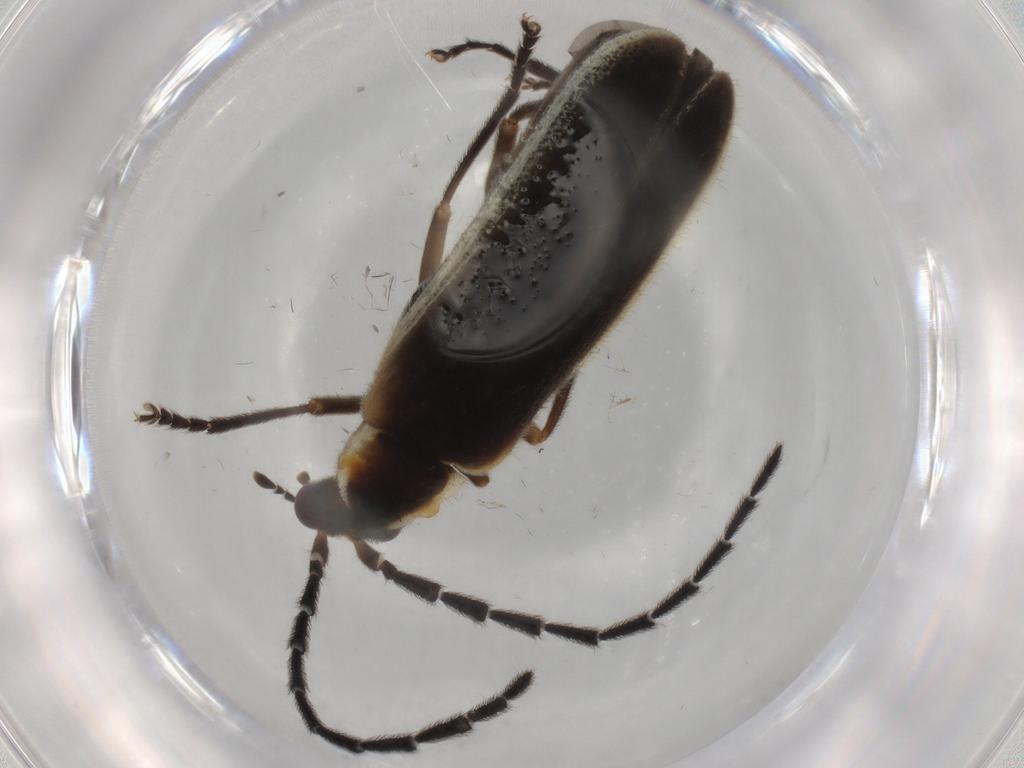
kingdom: Animalia
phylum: Arthropoda
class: Insecta
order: Coleoptera
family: Cantharidae
